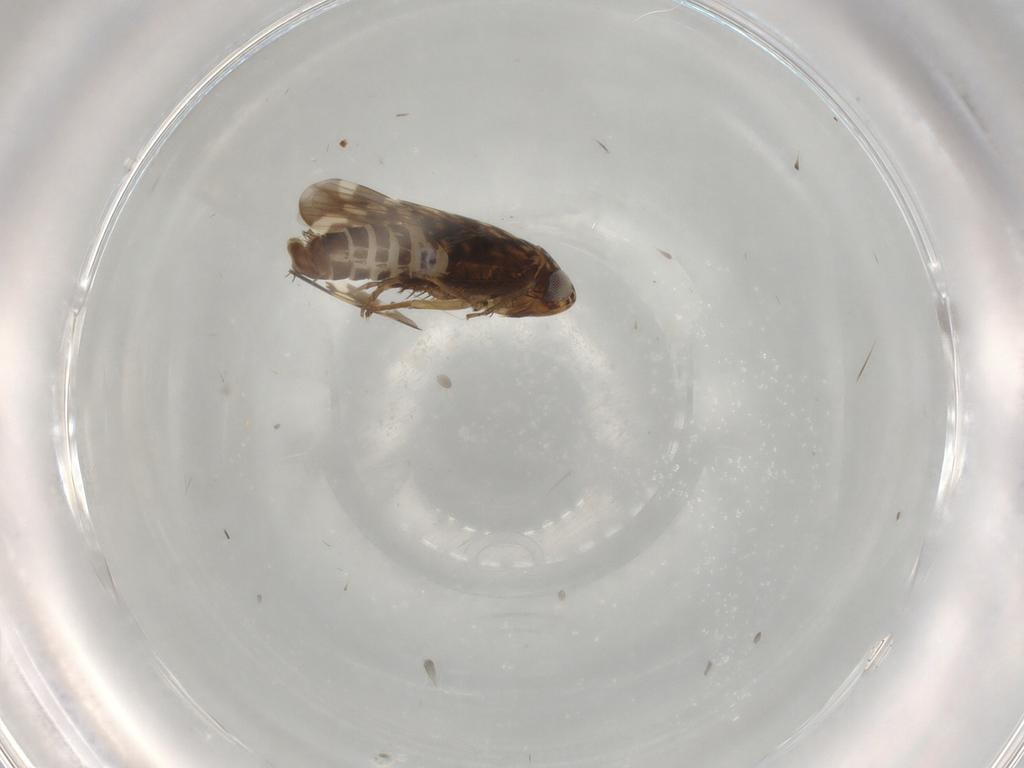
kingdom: Animalia
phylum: Arthropoda
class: Insecta
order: Hemiptera
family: Cicadellidae
